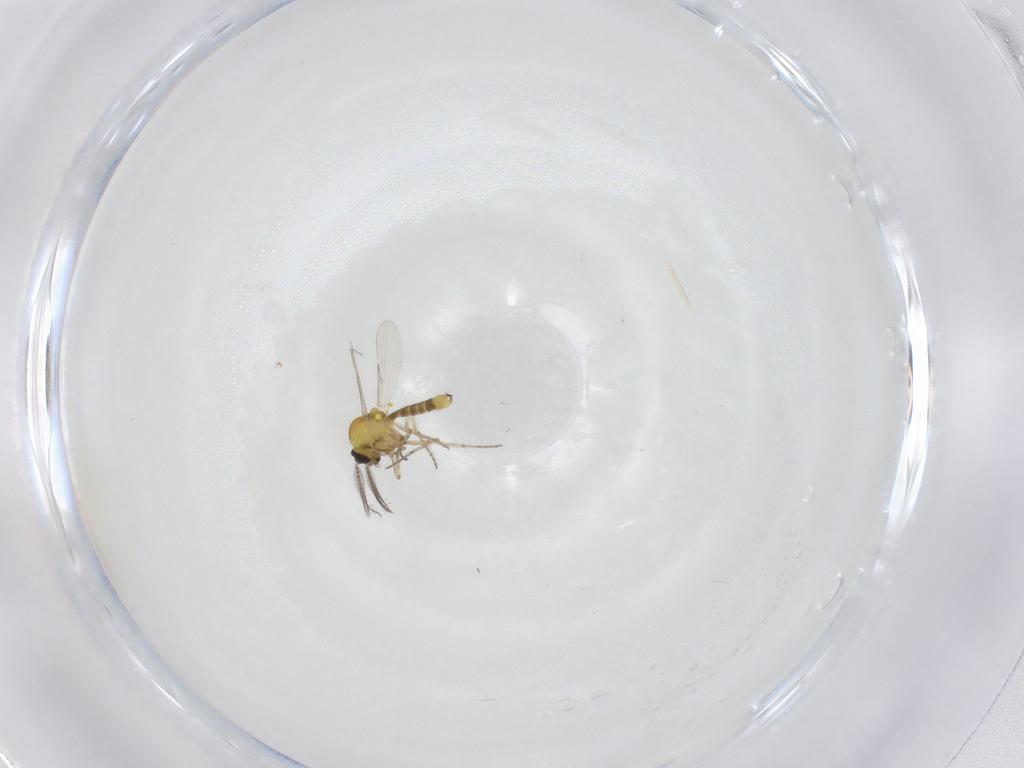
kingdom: Animalia
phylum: Arthropoda
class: Insecta
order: Diptera
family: Ceratopogonidae
